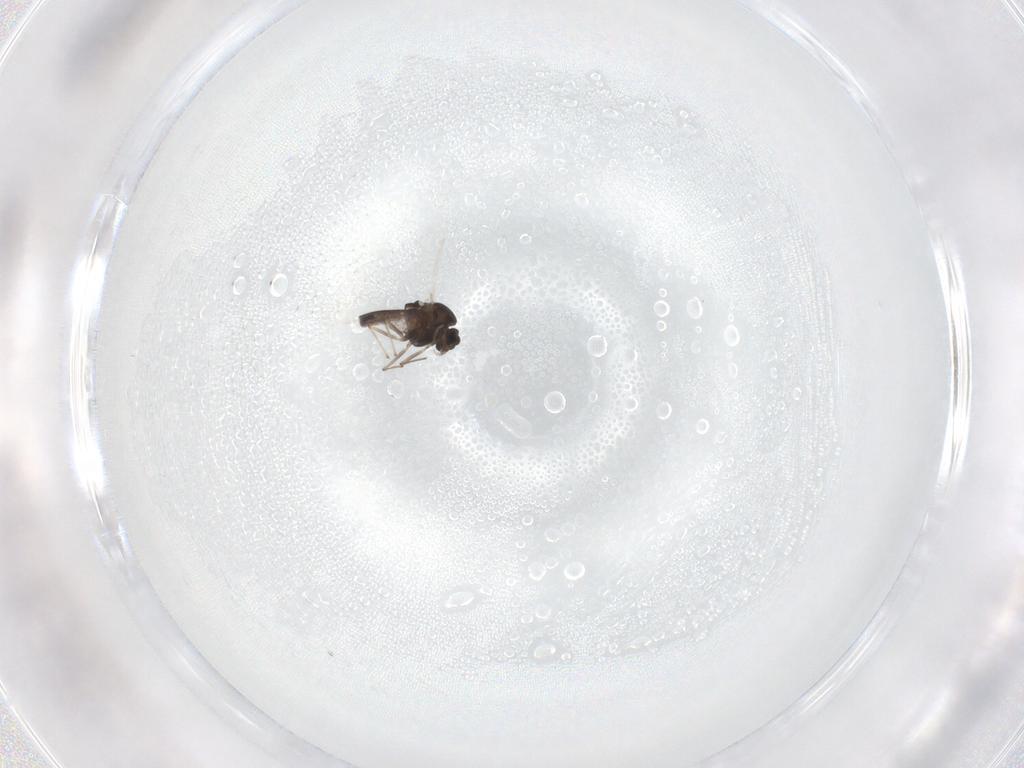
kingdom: Animalia
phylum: Arthropoda
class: Insecta
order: Diptera
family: Chironomidae
